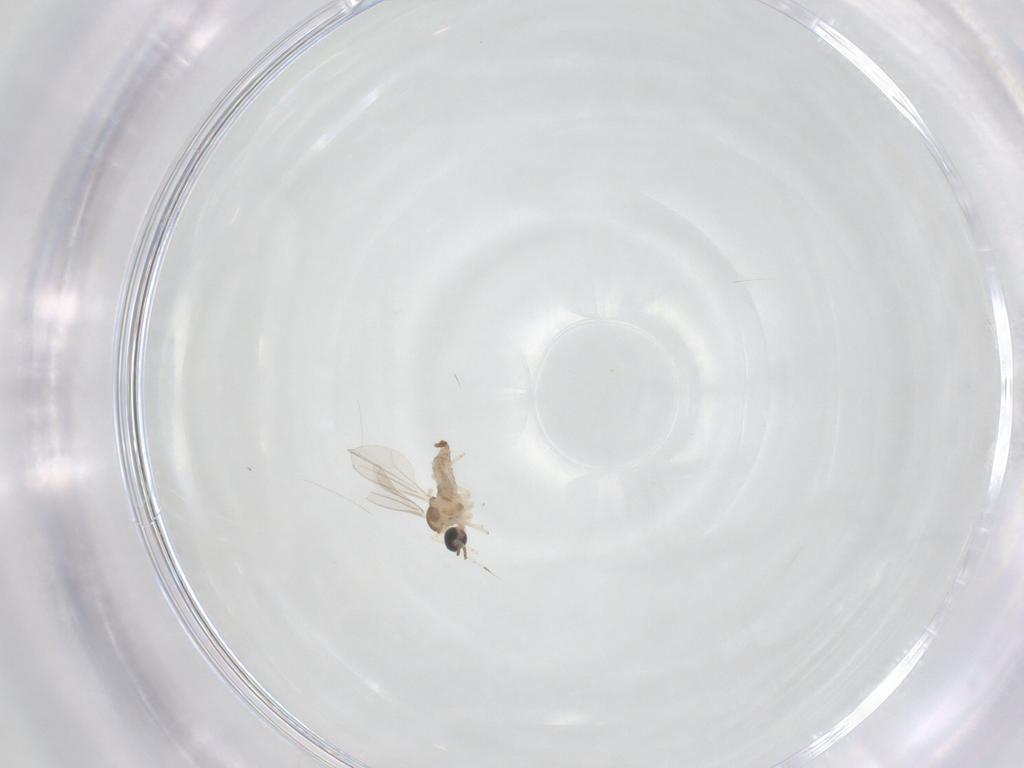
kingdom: Animalia
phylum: Arthropoda
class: Insecta
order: Diptera
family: Cecidomyiidae
